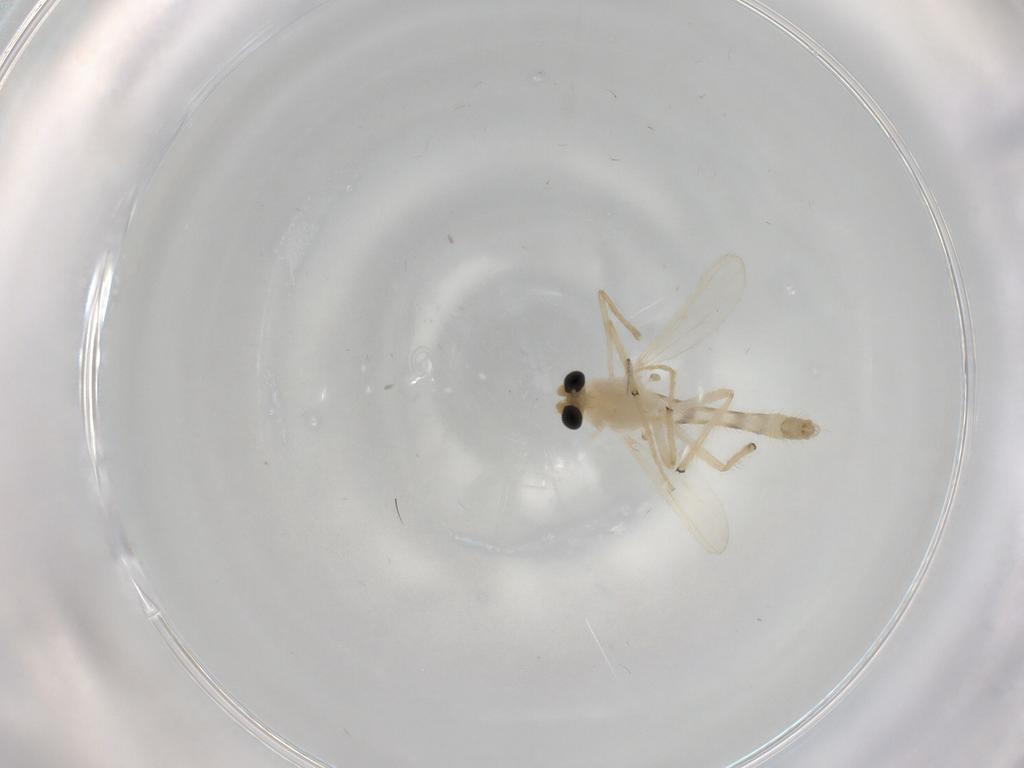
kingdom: Animalia
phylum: Arthropoda
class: Insecta
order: Diptera
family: Chironomidae
